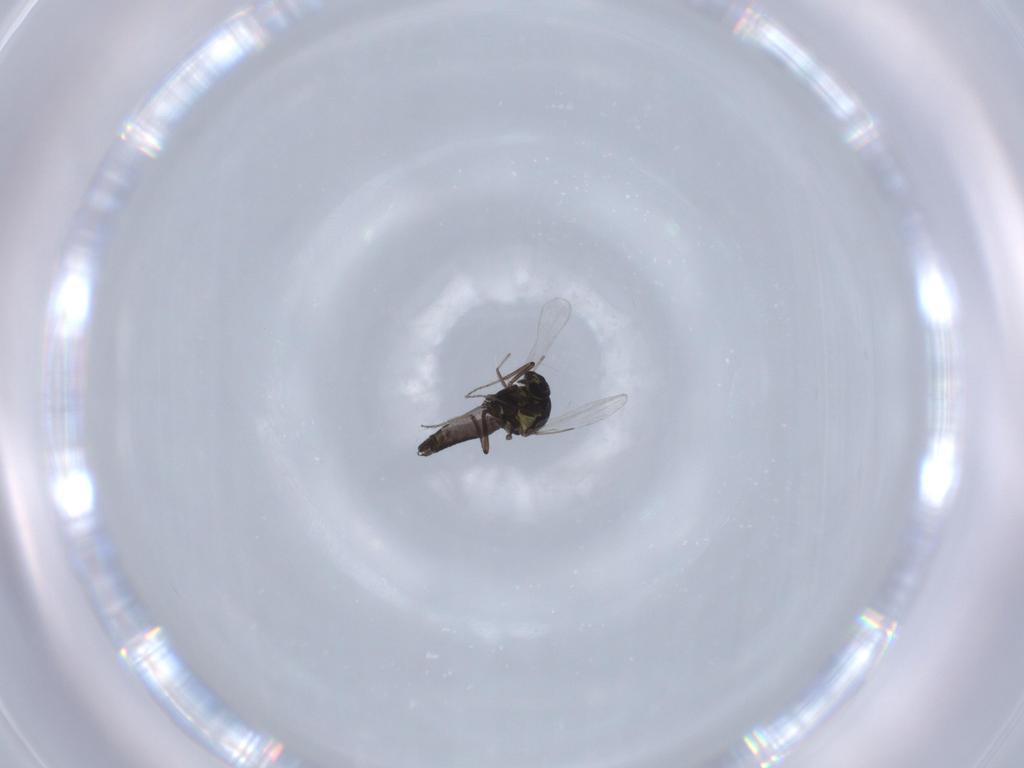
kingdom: Animalia
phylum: Arthropoda
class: Insecta
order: Diptera
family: Ceratopogonidae
